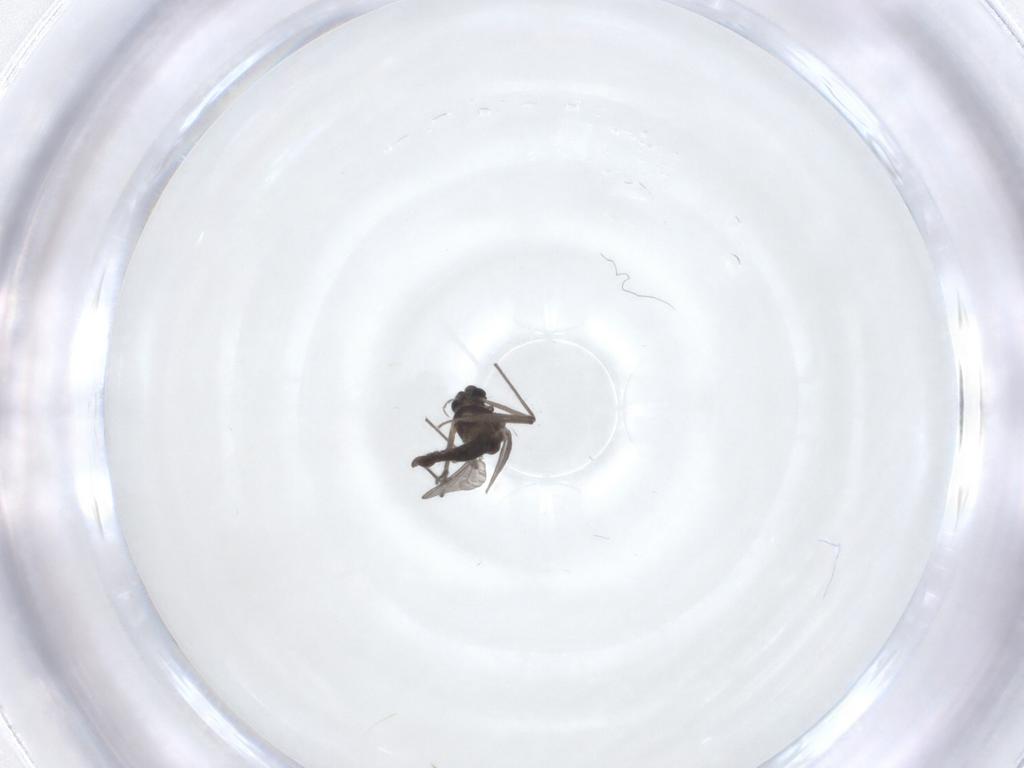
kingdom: Animalia
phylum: Arthropoda
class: Insecta
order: Diptera
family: Chironomidae
